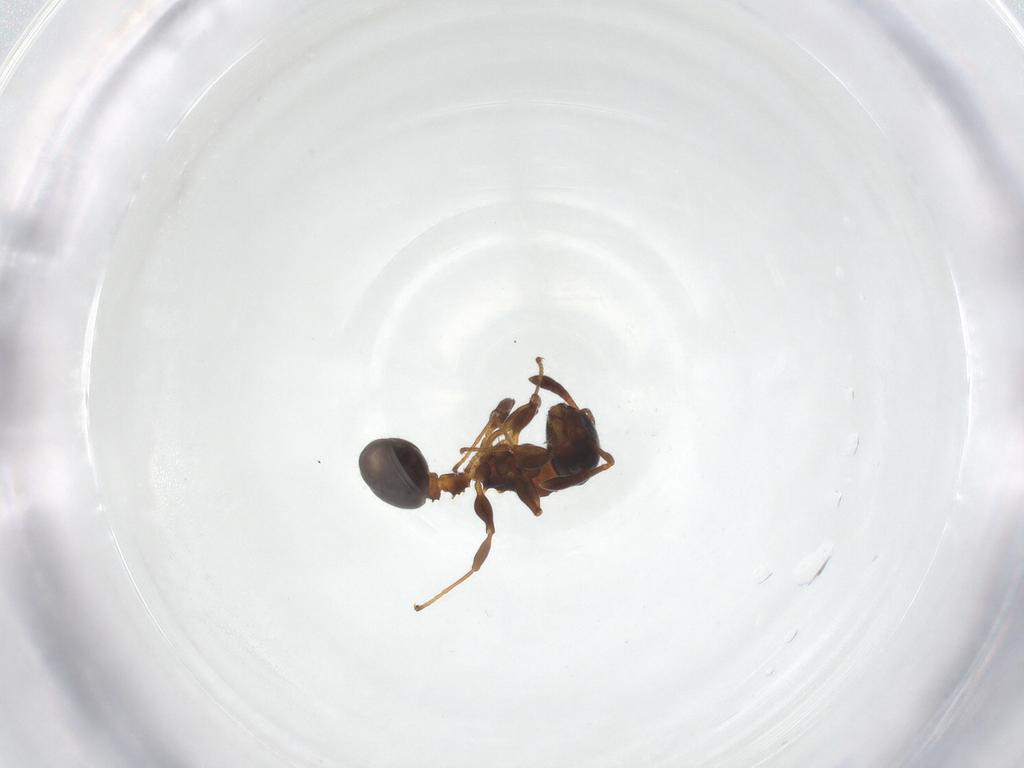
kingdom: Animalia
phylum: Arthropoda
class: Insecta
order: Hymenoptera
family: Formicidae
